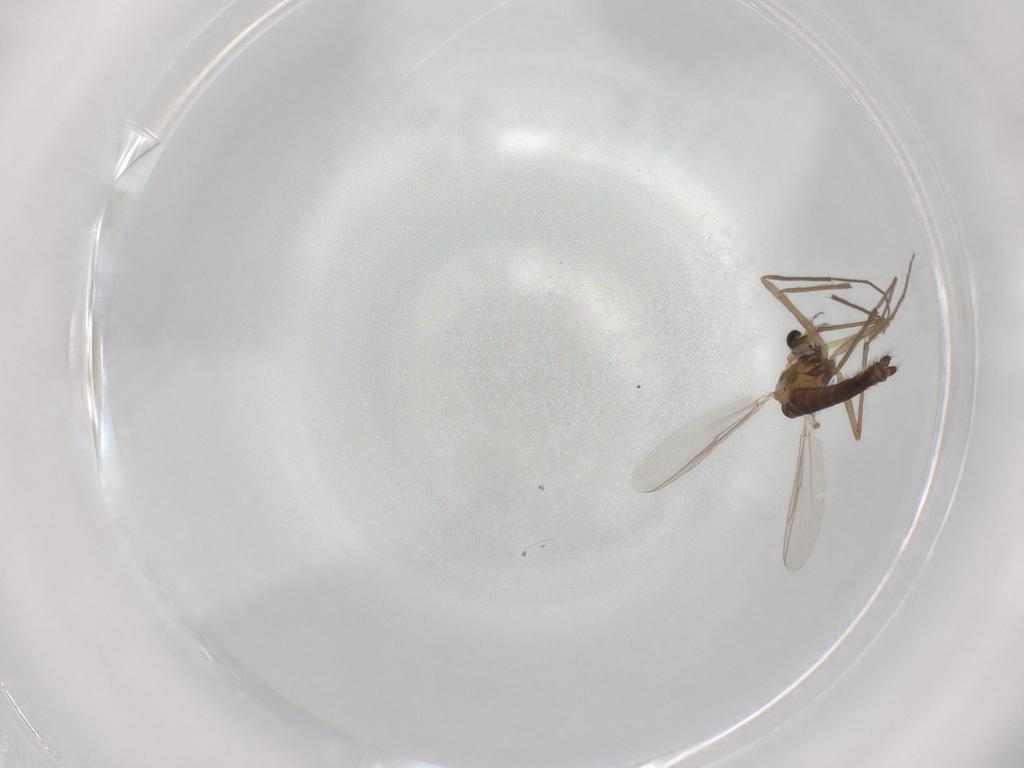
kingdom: Animalia
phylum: Arthropoda
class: Insecta
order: Diptera
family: Chironomidae
